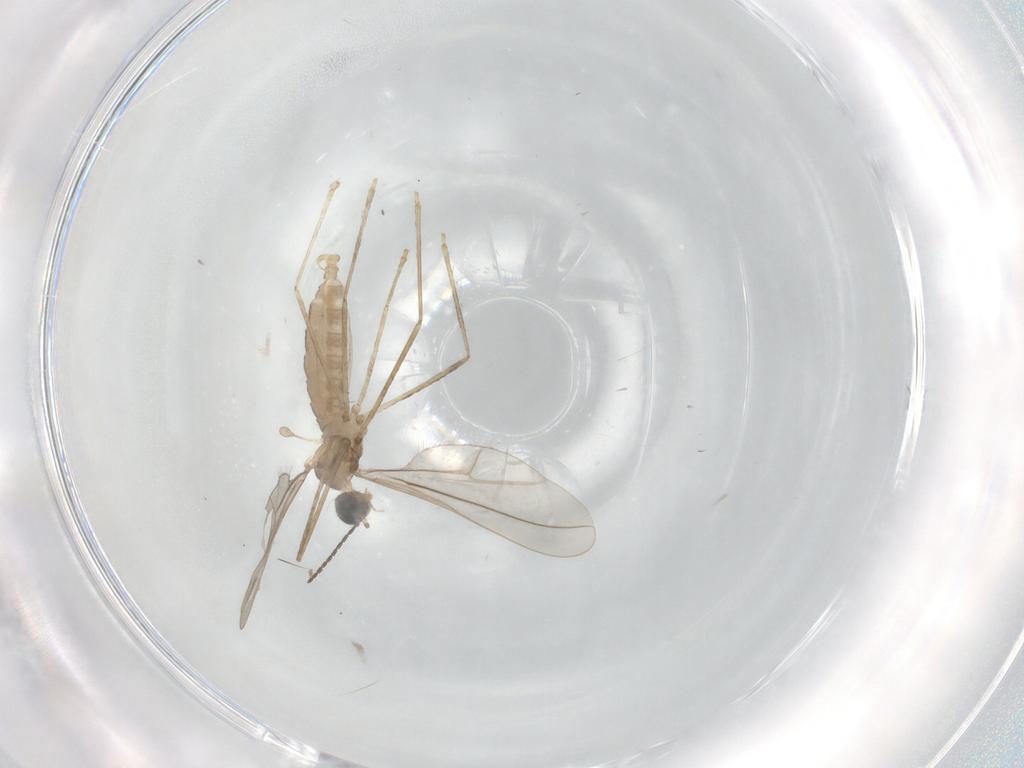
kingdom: Animalia
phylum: Arthropoda
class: Insecta
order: Diptera
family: Cecidomyiidae
